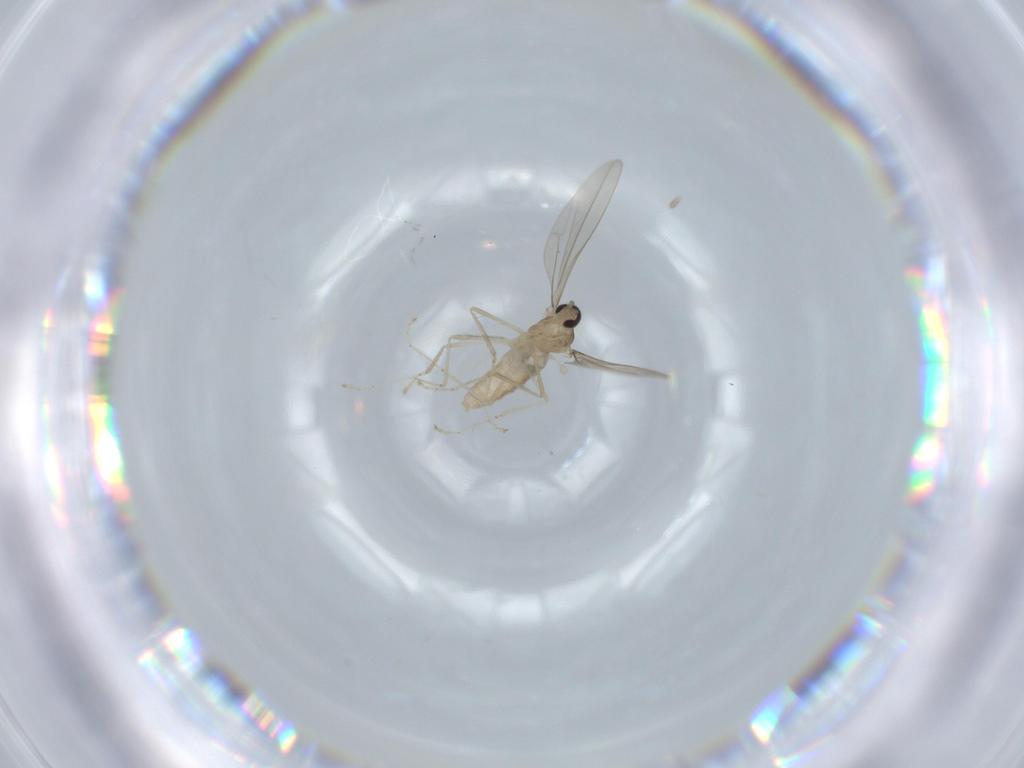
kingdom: Animalia
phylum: Arthropoda
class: Insecta
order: Diptera
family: Cecidomyiidae
